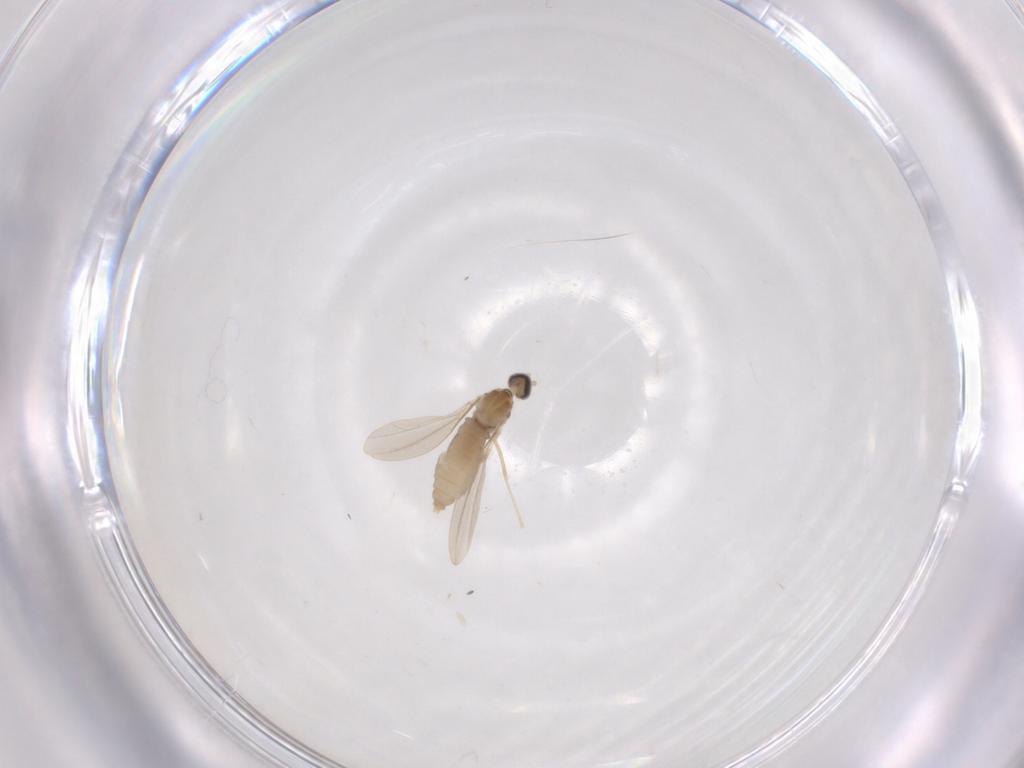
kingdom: Animalia
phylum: Arthropoda
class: Insecta
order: Diptera
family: Cecidomyiidae
